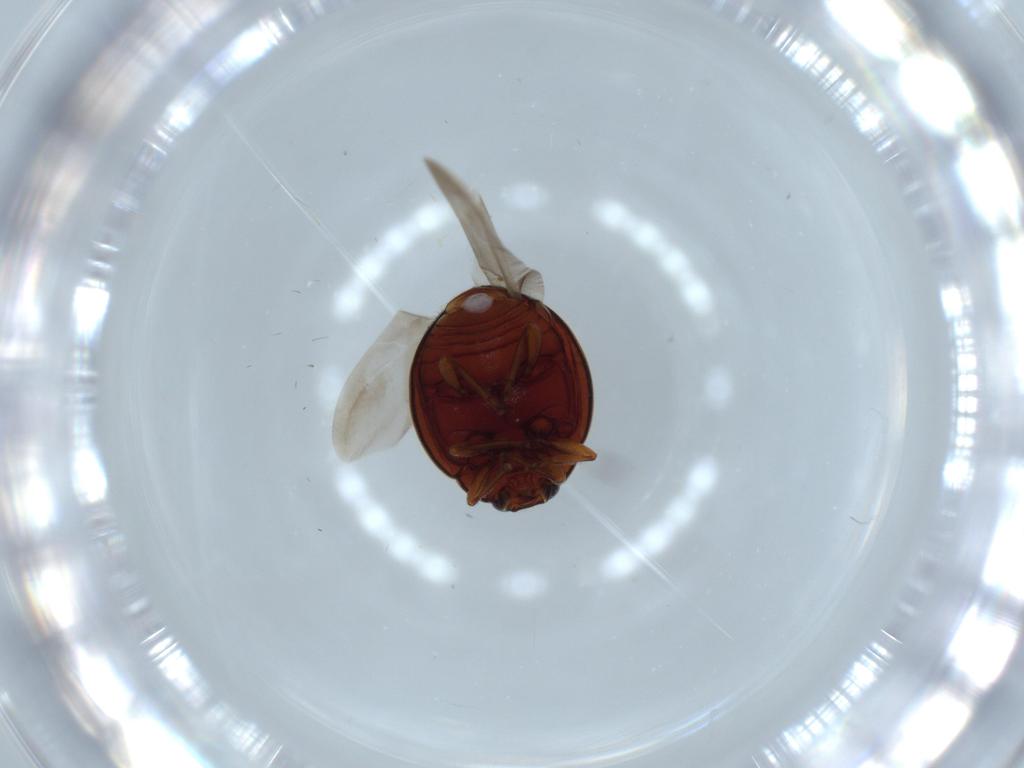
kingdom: Animalia
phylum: Arthropoda
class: Insecta
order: Coleoptera
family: Coccinellidae
